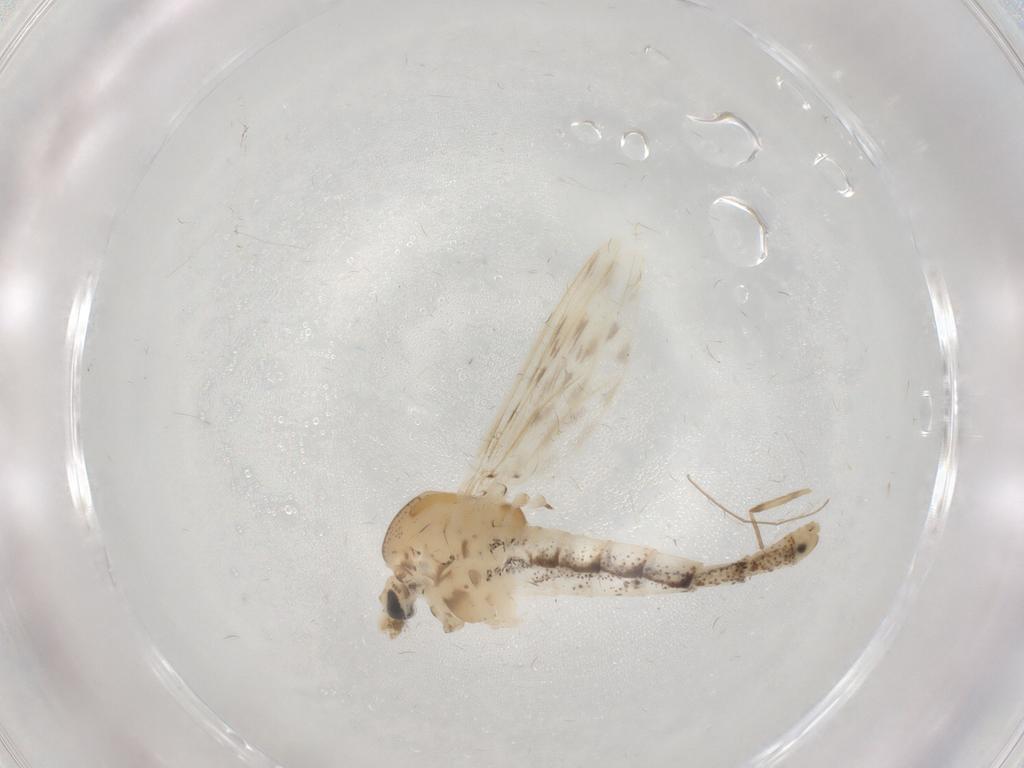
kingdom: Animalia
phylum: Arthropoda
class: Insecta
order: Diptera
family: Chaoboridae
